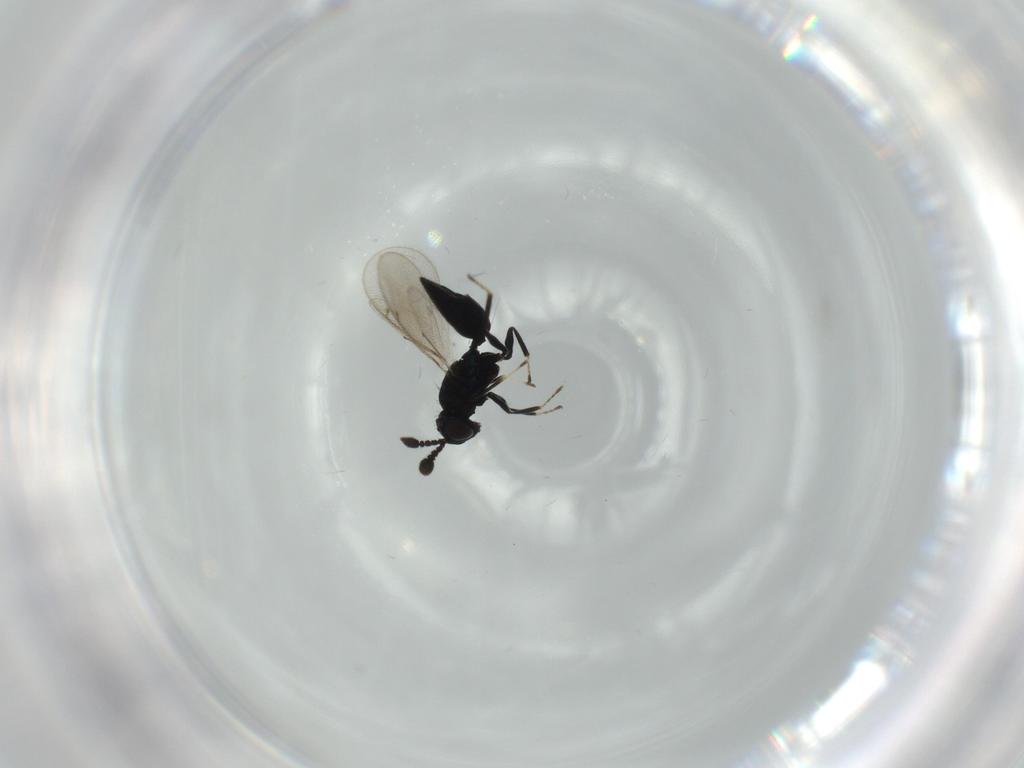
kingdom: Animalia
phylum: Arthropoda
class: Insecta
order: Hymenoptera
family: Eulophidae
